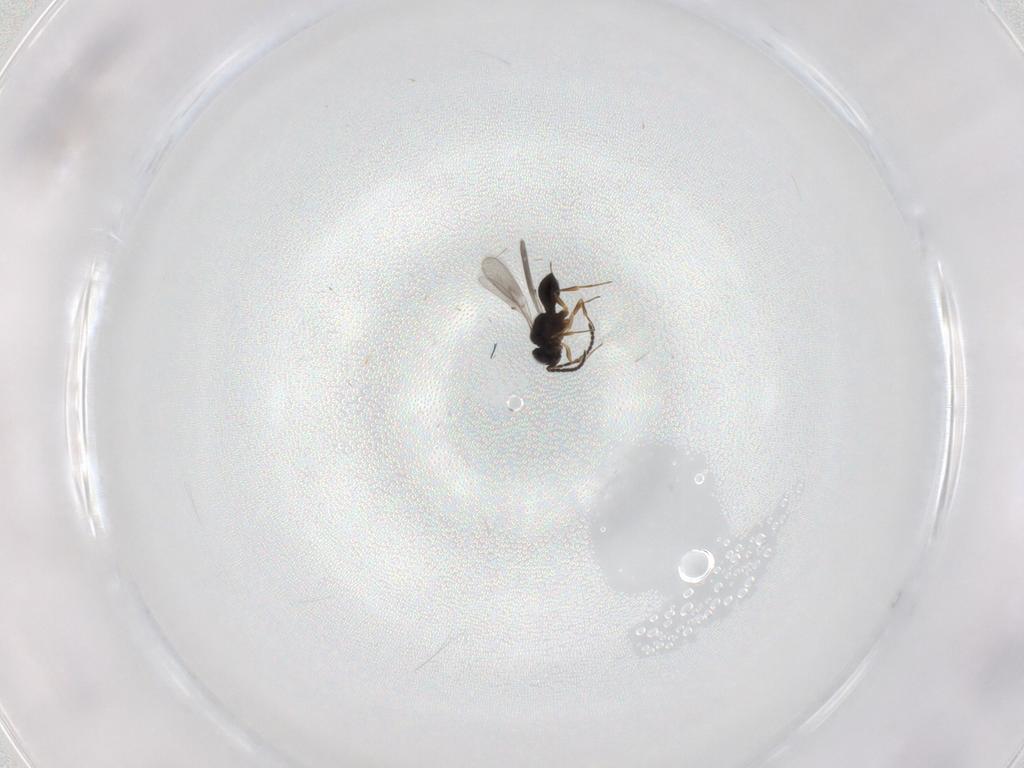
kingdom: Animalia
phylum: Arthropoda
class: Insecta
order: Hymenoptera
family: Scelionidae
